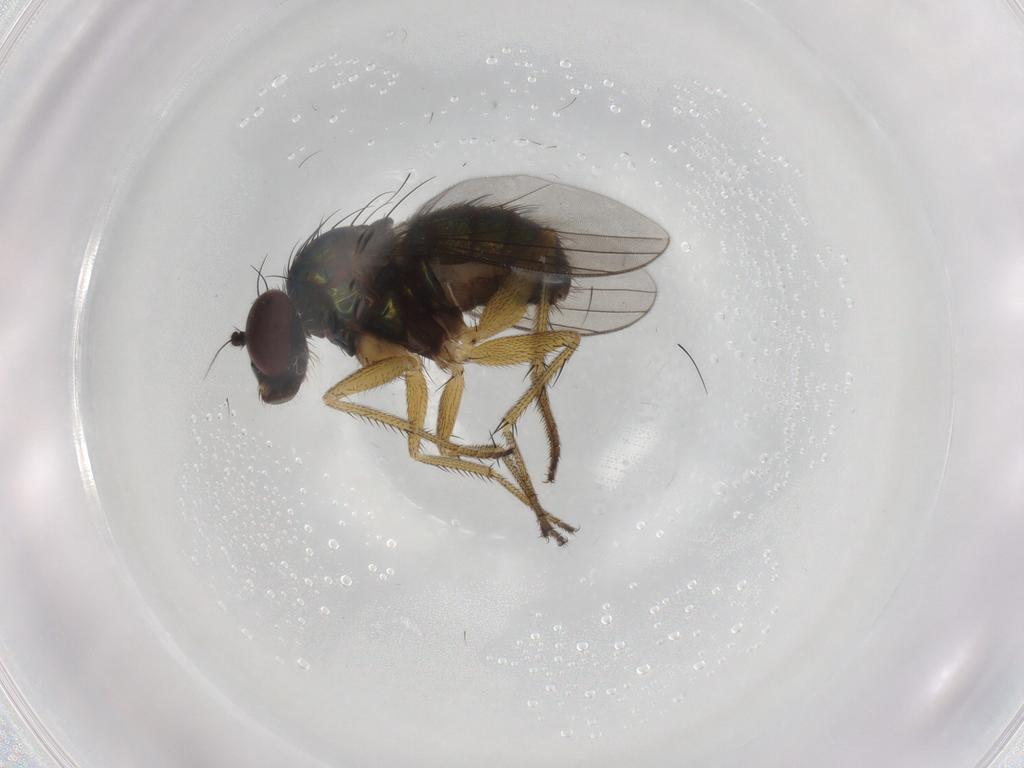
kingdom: Animalia
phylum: Arthropoda
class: Insecta
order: Diptera
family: Dolichopodidae
